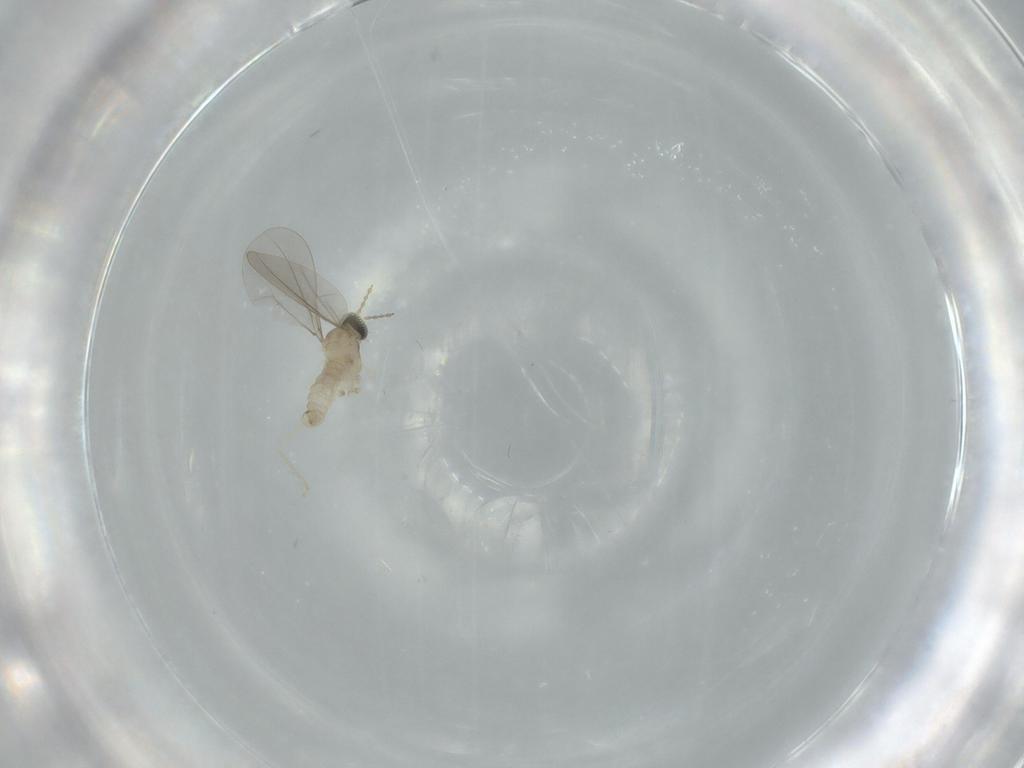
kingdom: Animalia
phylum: Arthropoda
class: Insecta
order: Diptera
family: Cecidomyiidae
